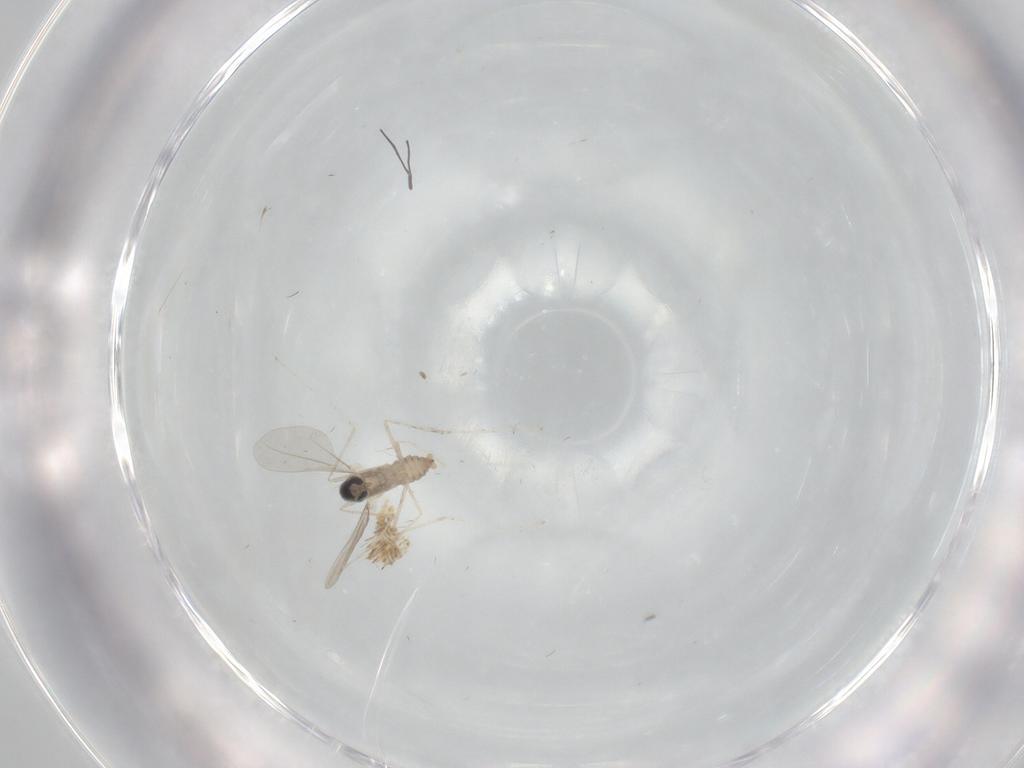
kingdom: Animalia
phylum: Arthropoda
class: Insecta
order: Diptera
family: Cecidomyiidae
